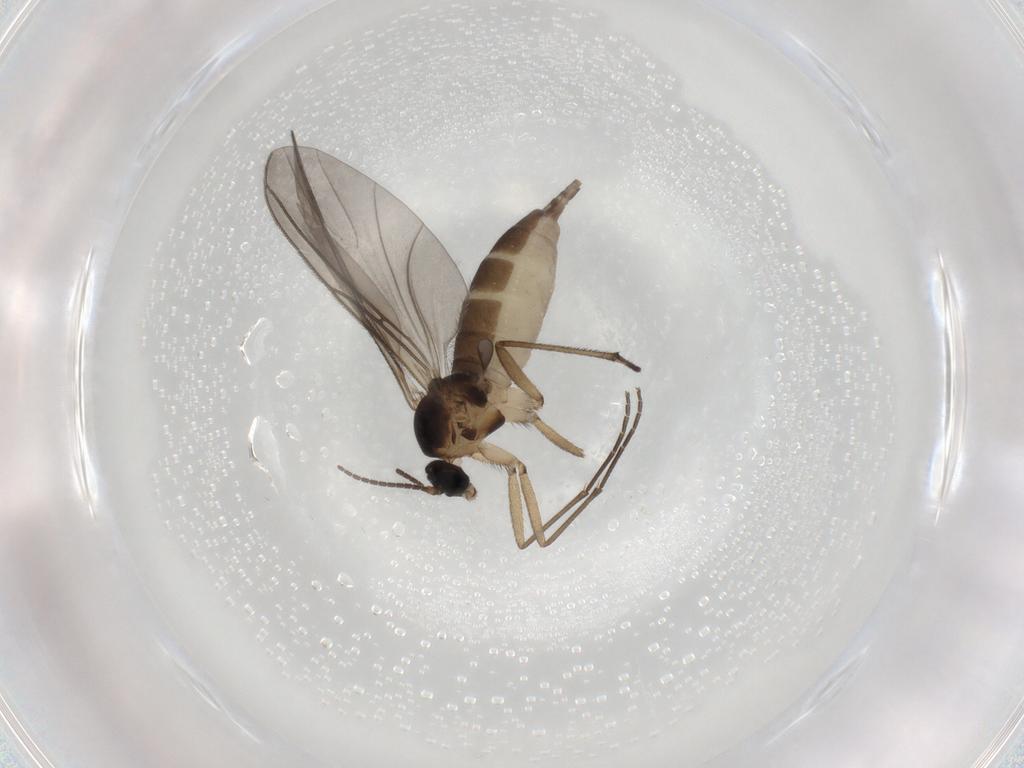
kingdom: Animalia
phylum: Arthropoda
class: Insecta
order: Diptera
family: Sciaridae
